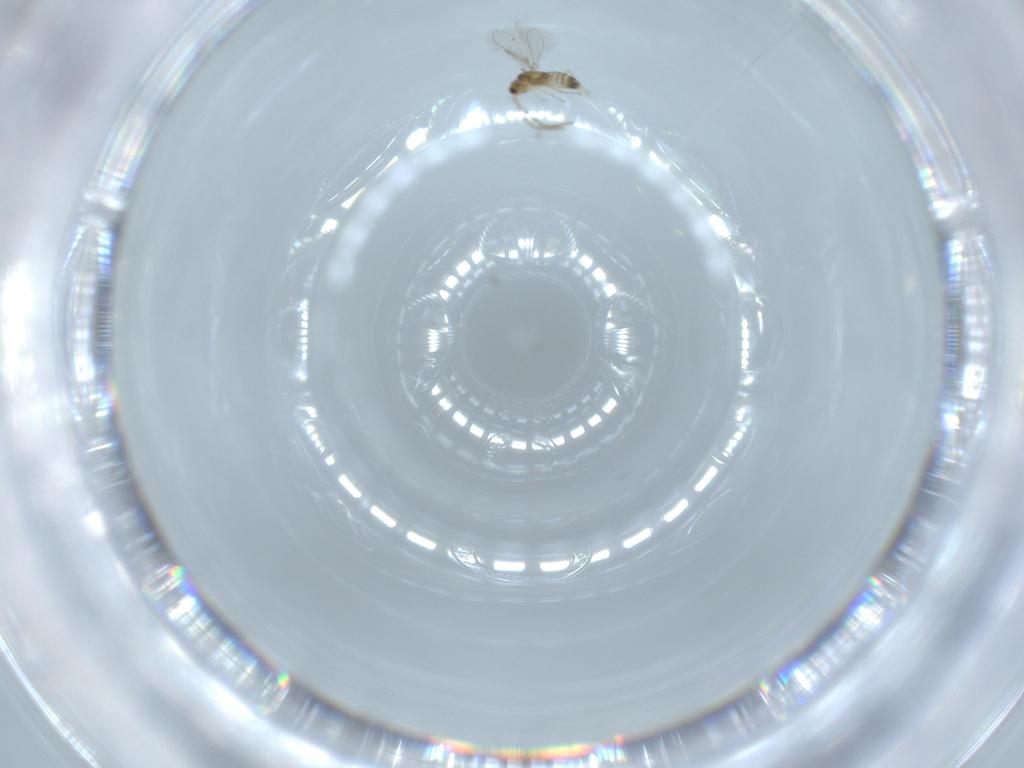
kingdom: Animalia
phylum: Arthropoda
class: Insecta
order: Hymenoptera
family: Mymaridae
